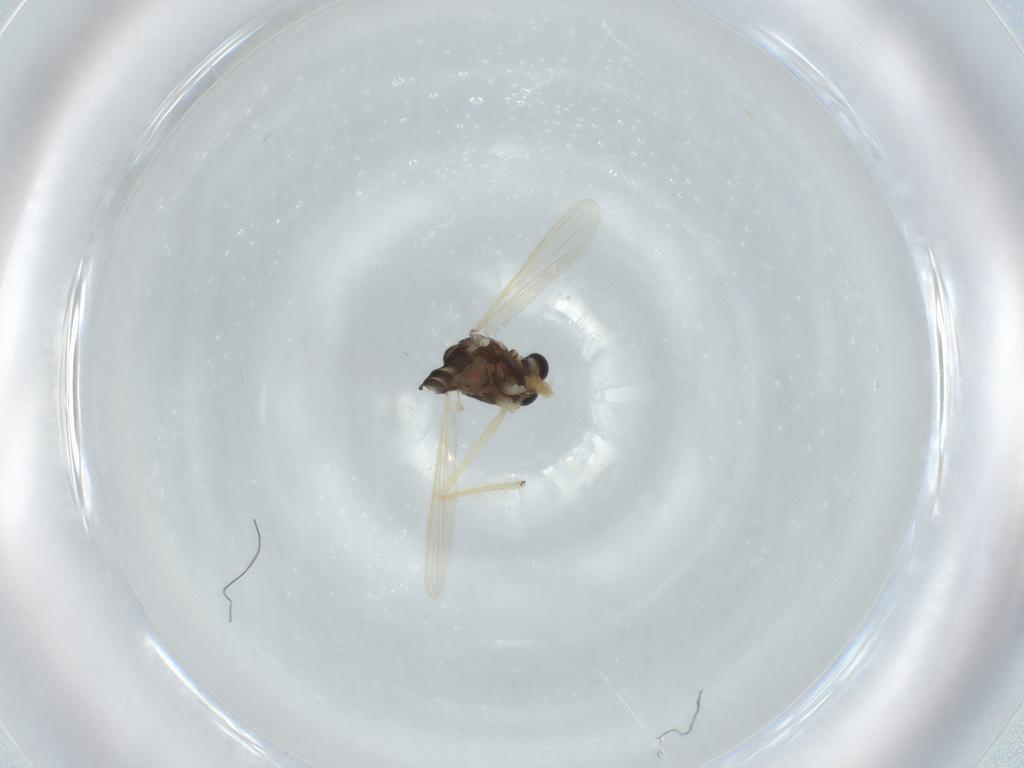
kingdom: Animalia
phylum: Arthropoda
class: Insecta
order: Diptera
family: Chironomidae
